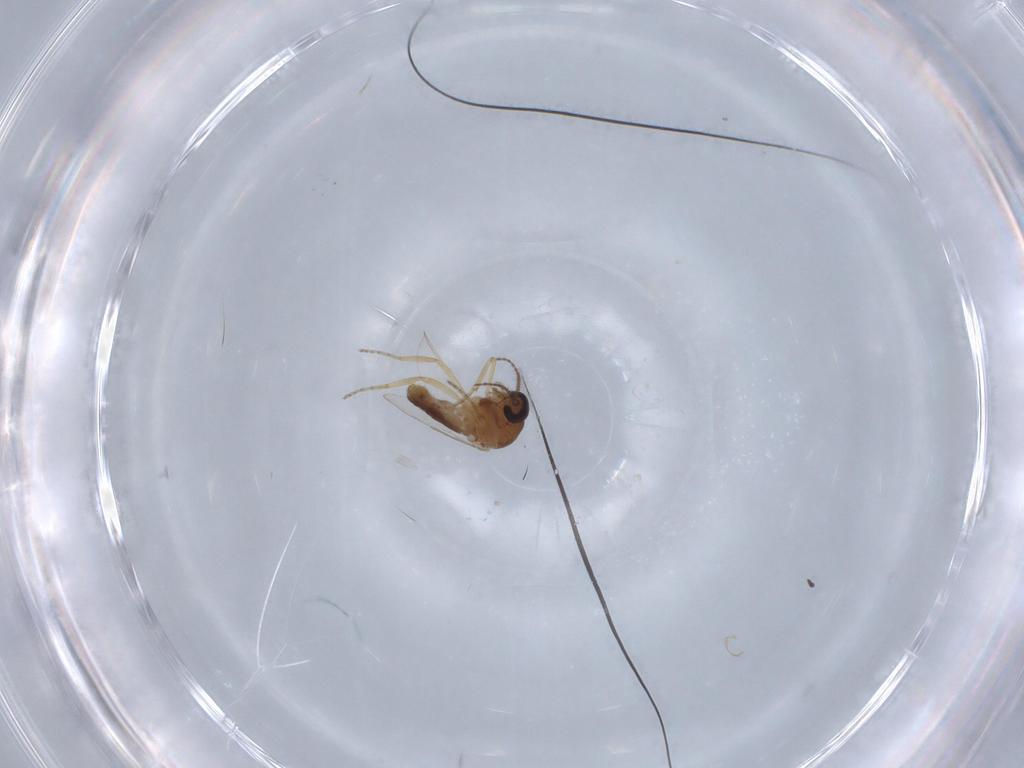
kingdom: Animalia
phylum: Arthropoda
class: Insecta
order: Diptera
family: Ceratopogonidae
